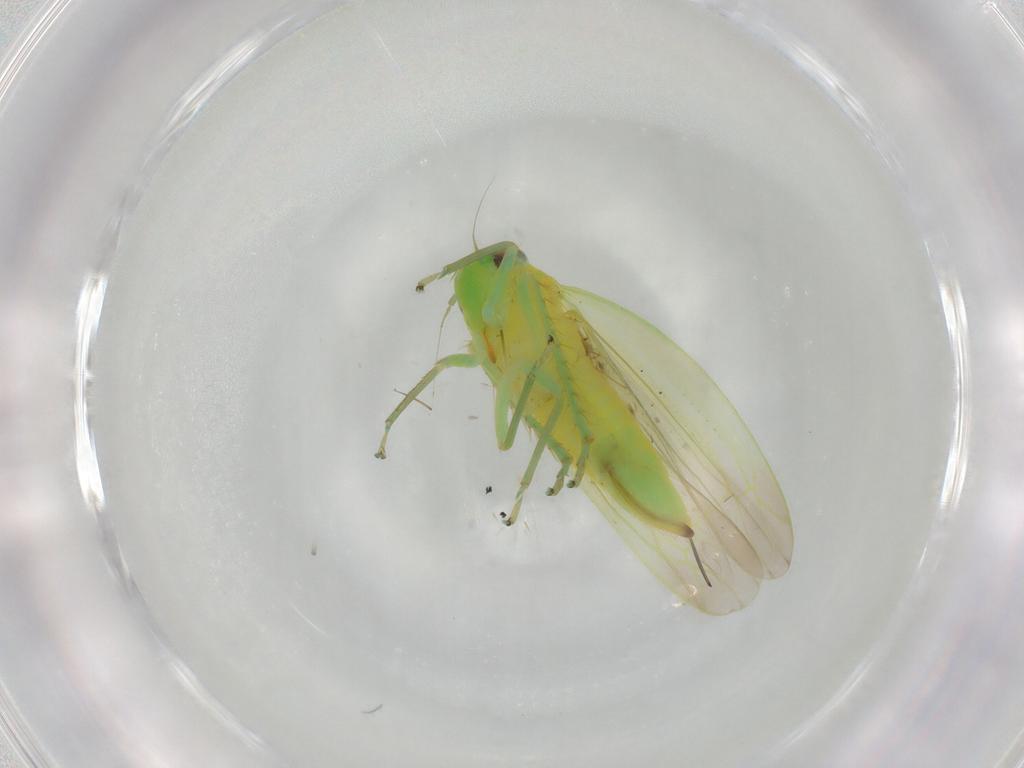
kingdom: Animalia
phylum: Arthropoda
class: Insecta
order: Hemiptera
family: Cicadellidae
